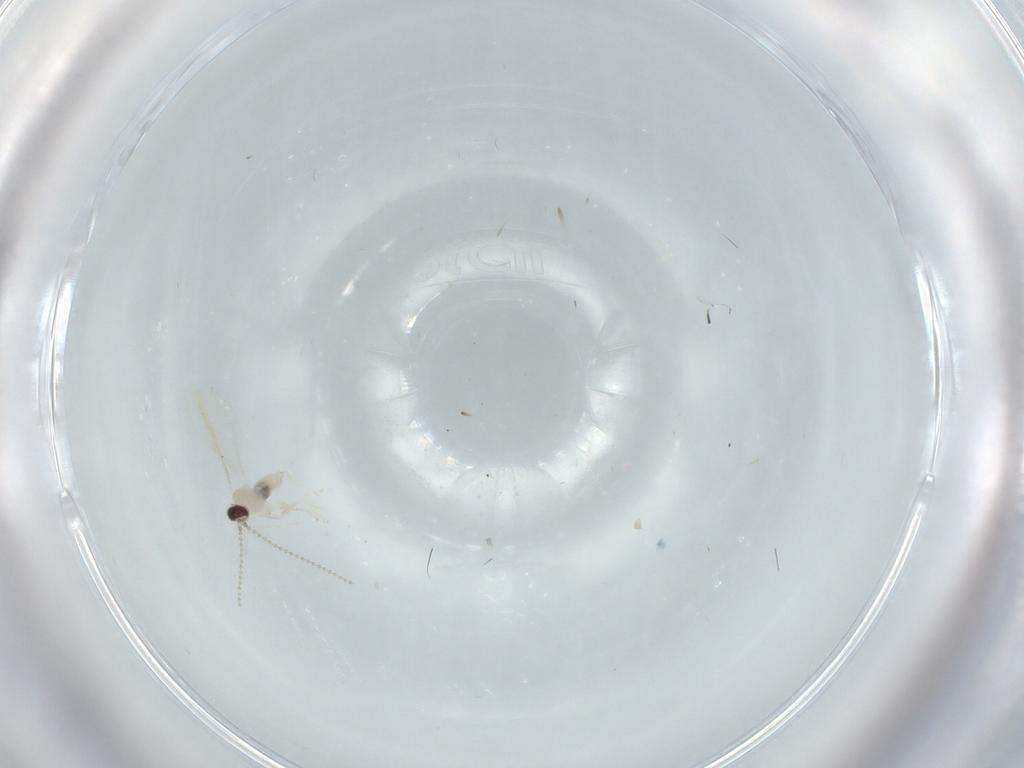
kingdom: Animalia
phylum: Arthropoda
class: Insecta
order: Diptera
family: Cecidomyiidae
